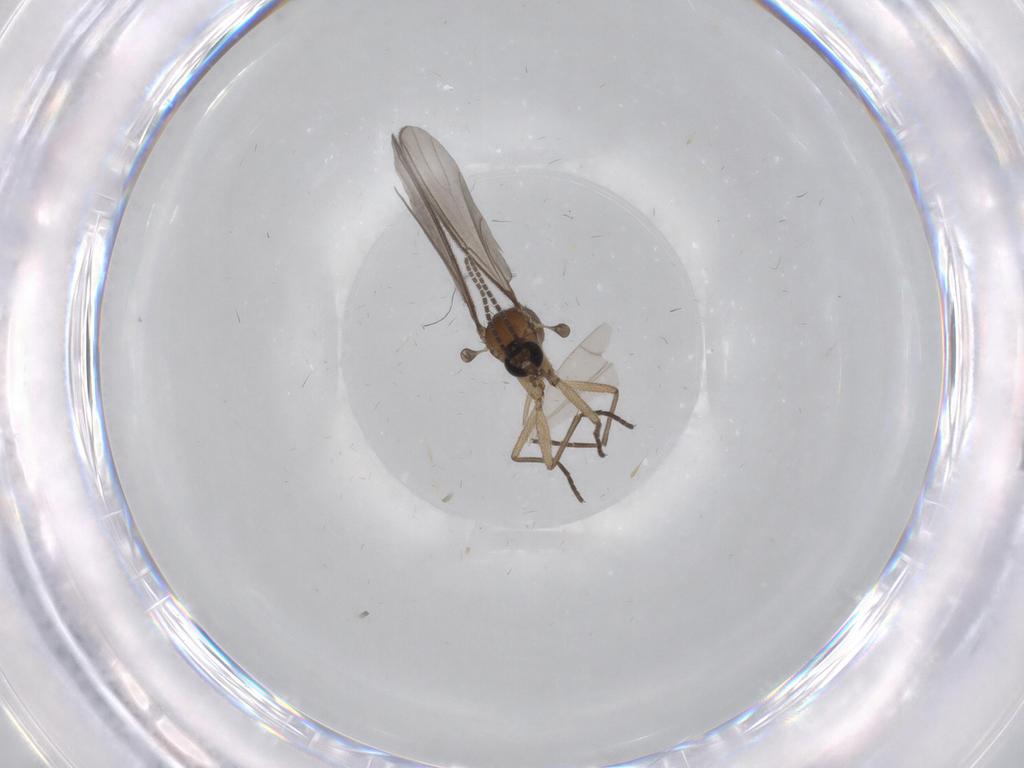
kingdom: Animalia
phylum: Arthropoda
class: Insecta
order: Diptera
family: Sciaridae
